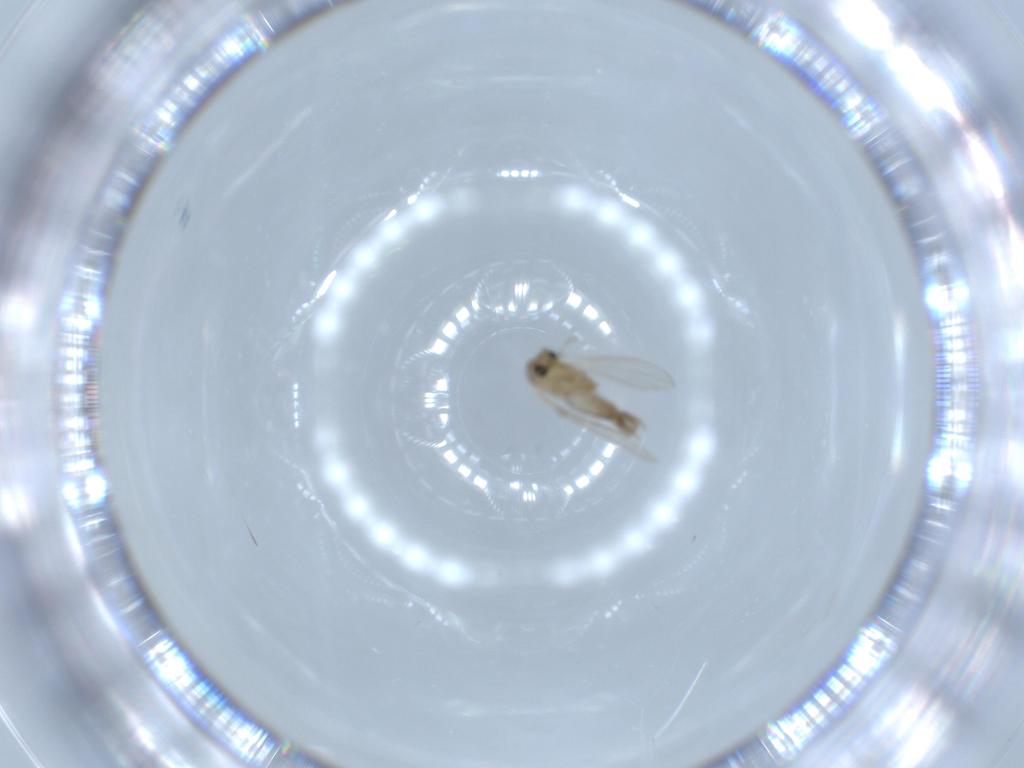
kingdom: Animalia
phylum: Arthropoda
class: Insecta
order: Diptera
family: Psychodidae
